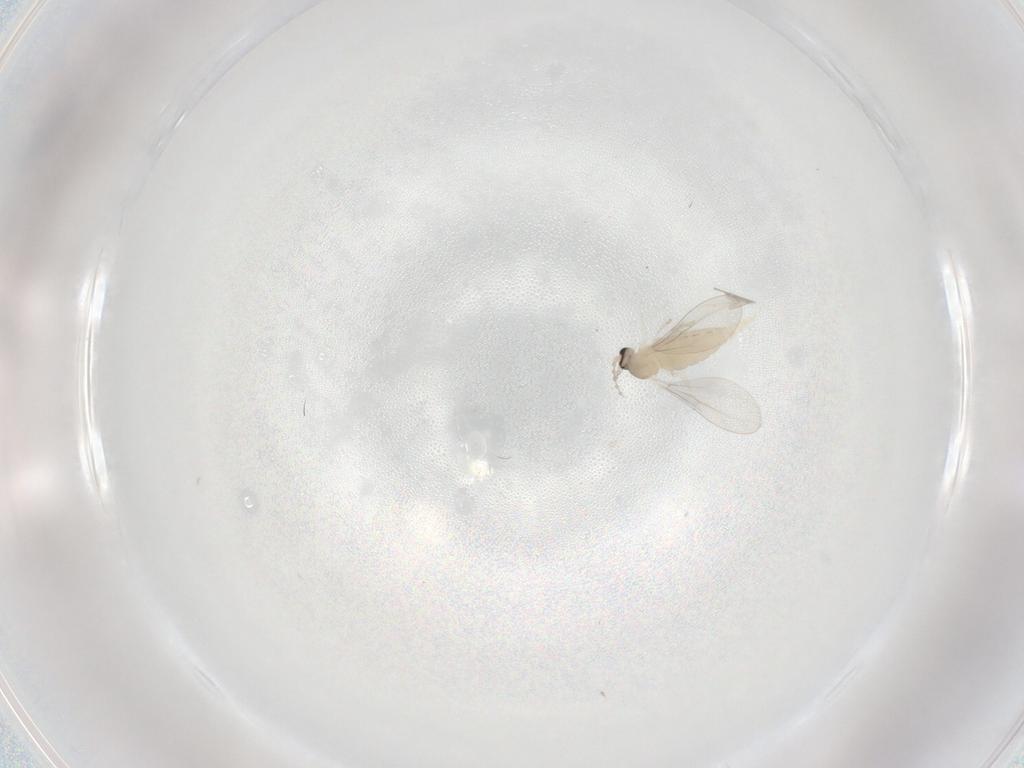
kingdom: Animalia
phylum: Arthropoda
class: Insecta
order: Diptera
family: Cecidomyiidae
